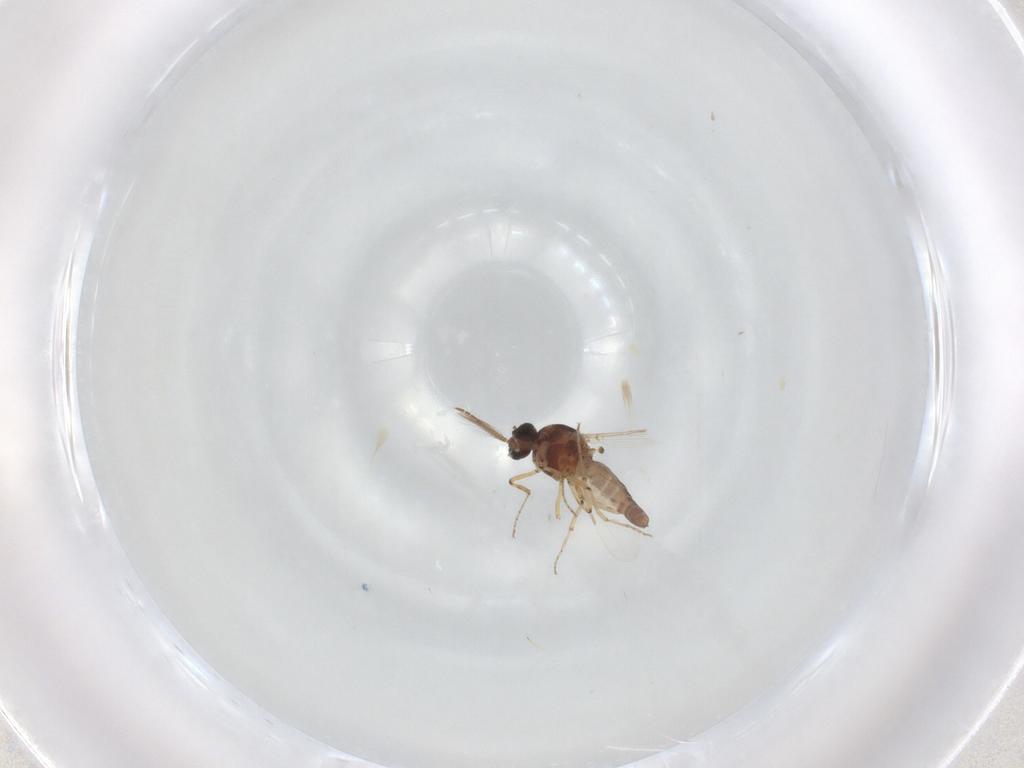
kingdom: Animalia
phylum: Arthropoda
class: Insecta
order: Diptera
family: Ceratopogonidae
